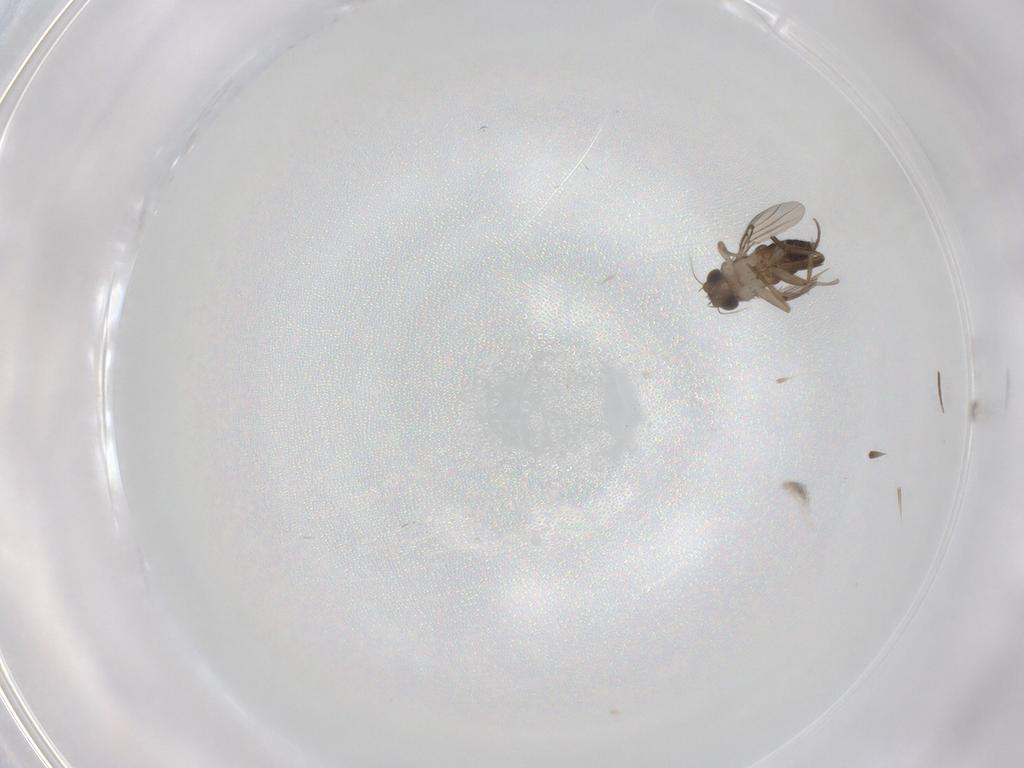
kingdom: Animalia
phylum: Arthropoda
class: Insecta
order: Diptera
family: Phoridae
